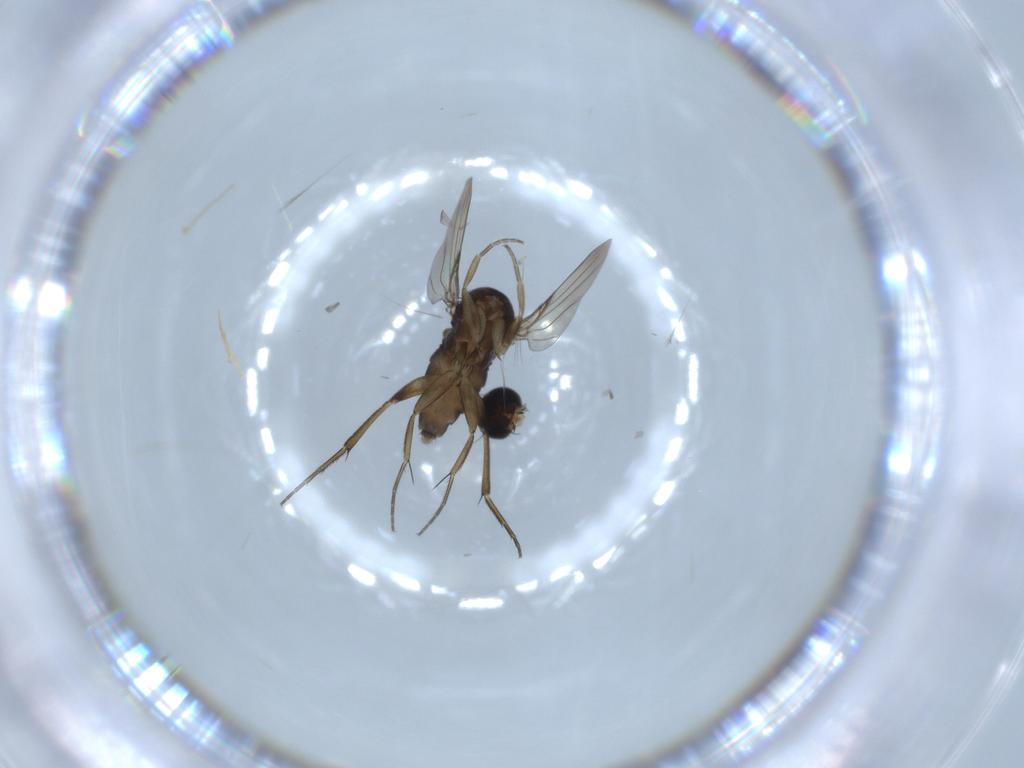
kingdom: Animalia
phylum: Arthropoda
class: Insecta
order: Diptera
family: Phoridae
